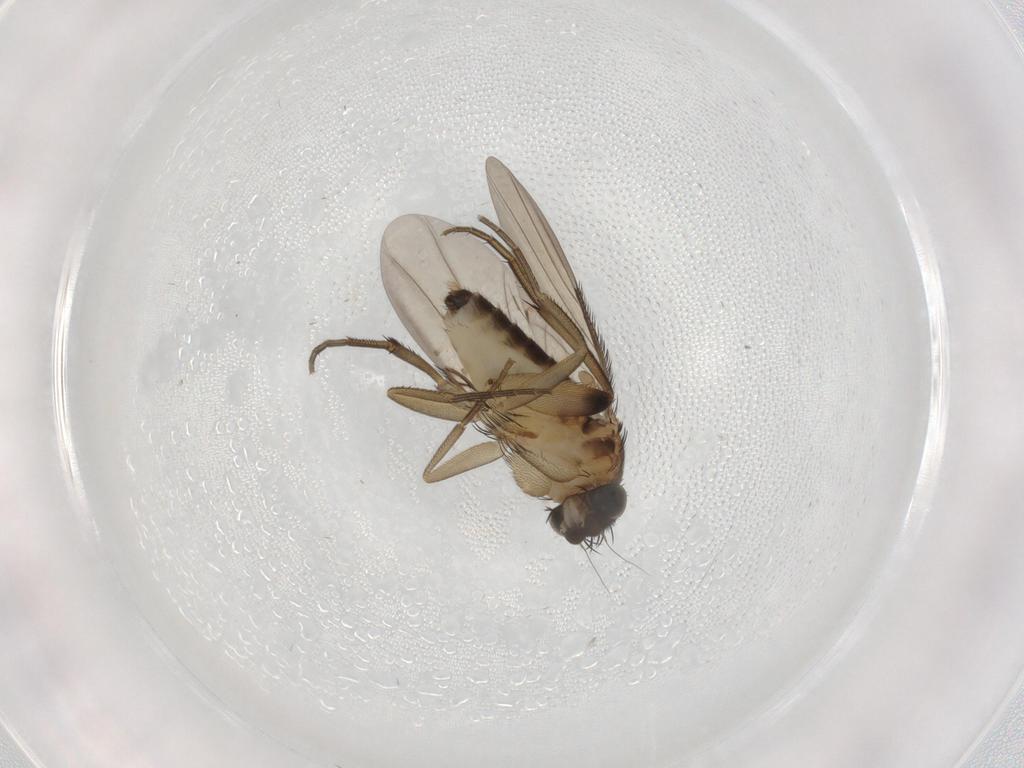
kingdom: Animalia
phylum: Arthropoda
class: Insecta
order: Diptera
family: Phoridae
